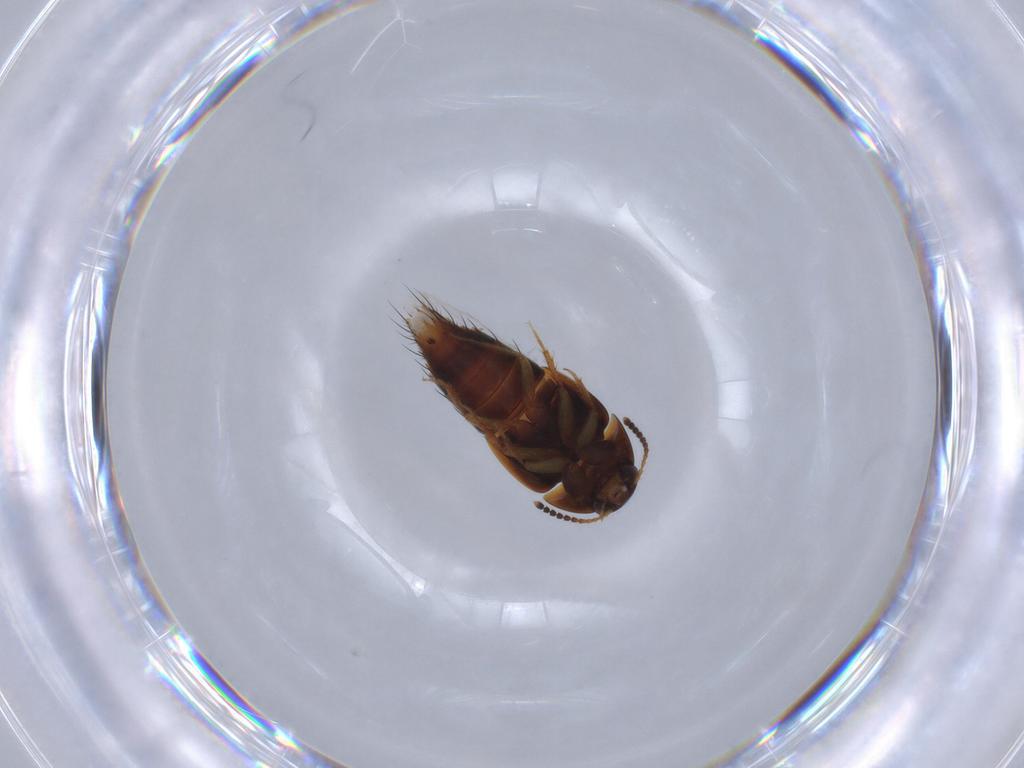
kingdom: Animalia
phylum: Arthropoda
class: Insecta
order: Coleoptera
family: Staphylinidae
